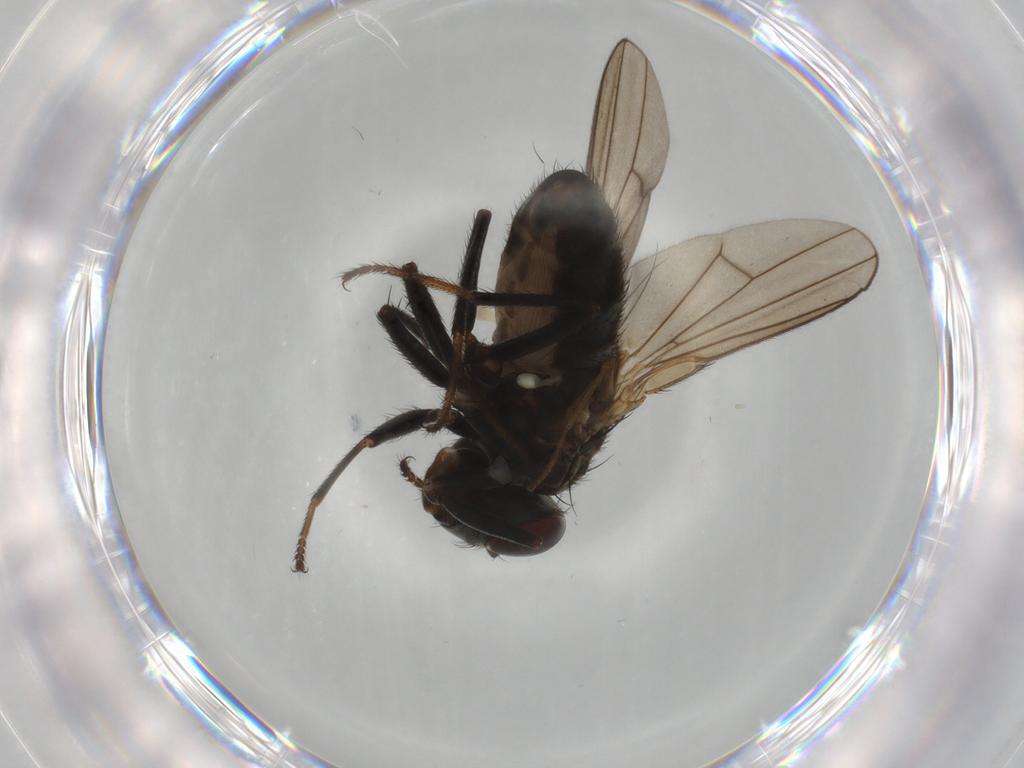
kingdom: Animalia
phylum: Arthropoda
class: Insecta
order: Diptera
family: Ephydridae
